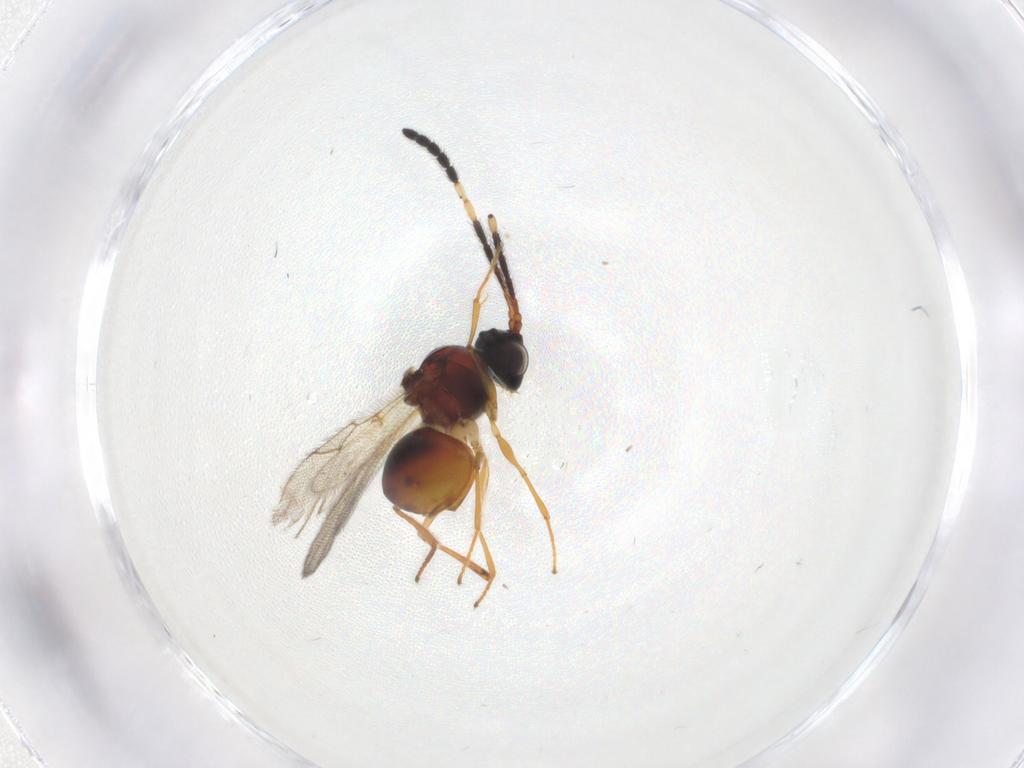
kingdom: Animalia
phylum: Arthropoda
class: Insecta
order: Hymenoptera
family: Figitidae
